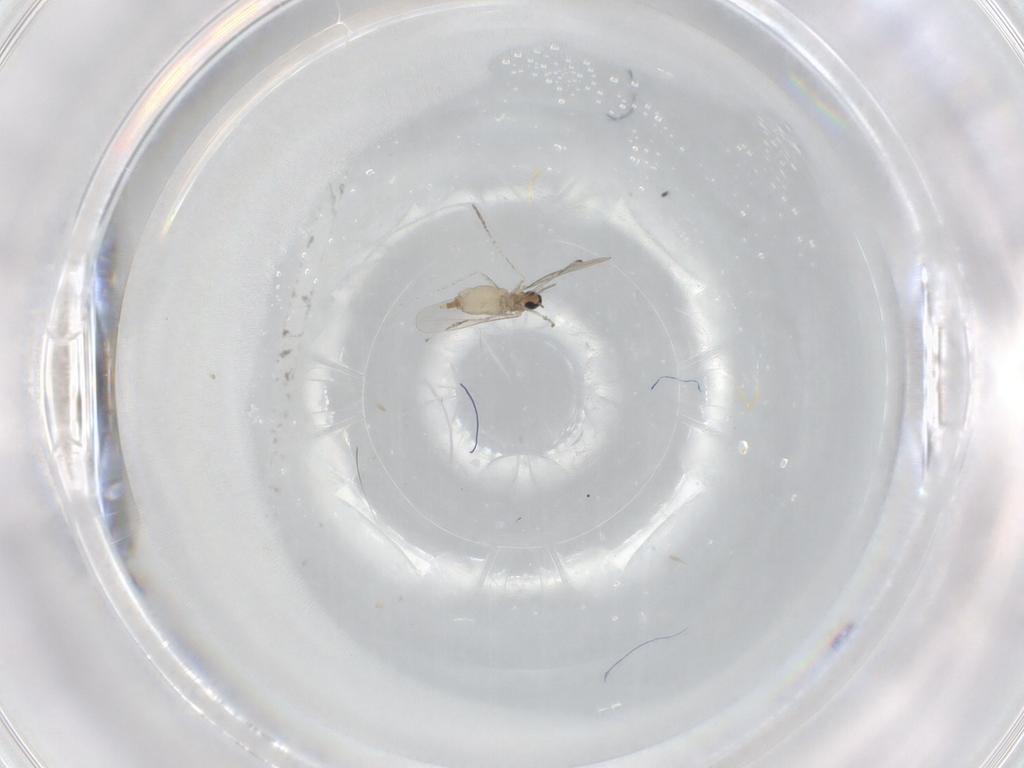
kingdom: Animalia
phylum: Arthropoda
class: Insecta
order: Diptera
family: Cecidomyiidae
